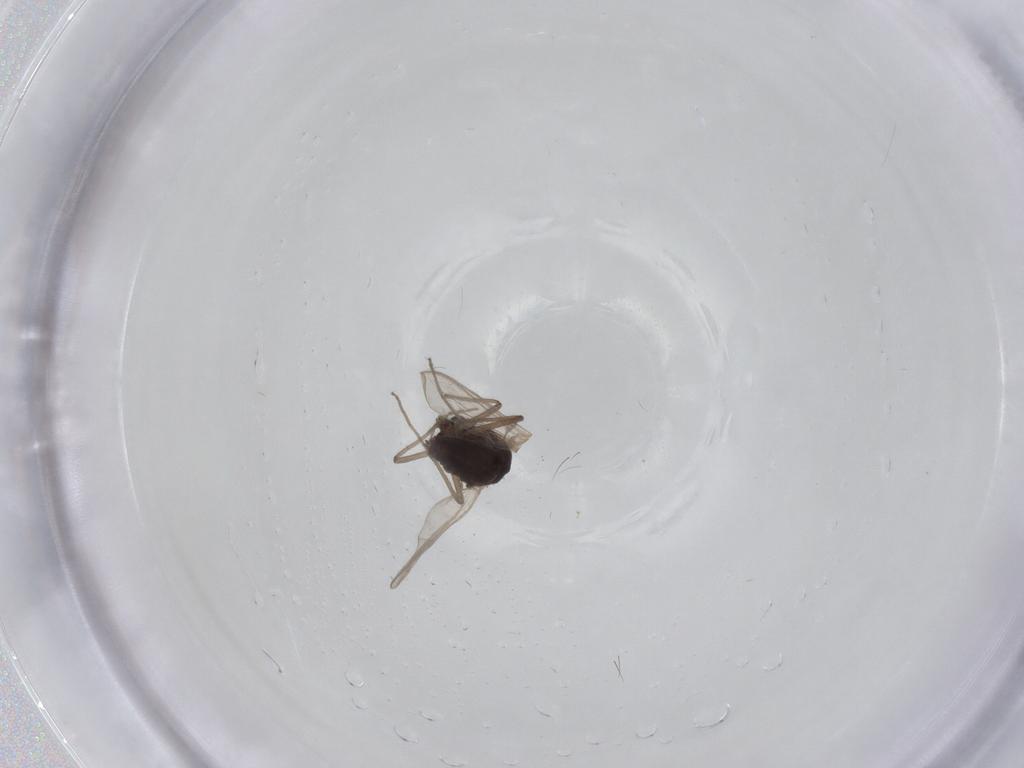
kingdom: Animalia
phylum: Arthropoda
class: Insecta
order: Diptera
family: Chironomidae
